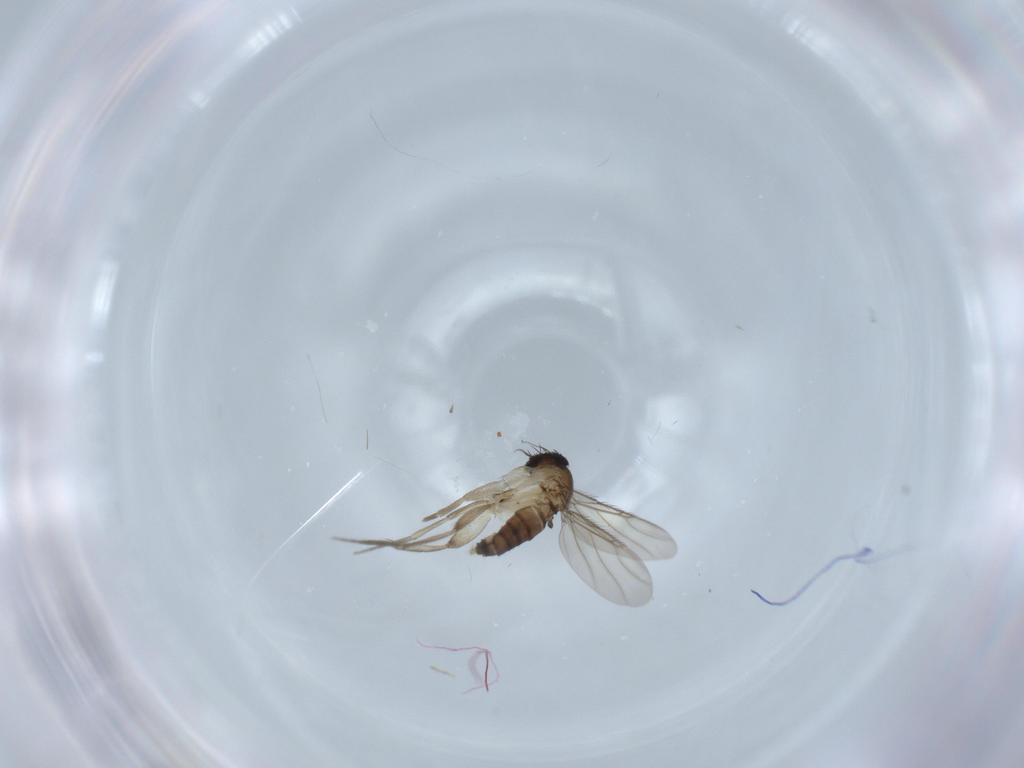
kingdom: Animalia
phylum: Arthropoda
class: Insecta
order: Diptera
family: Phoridae
